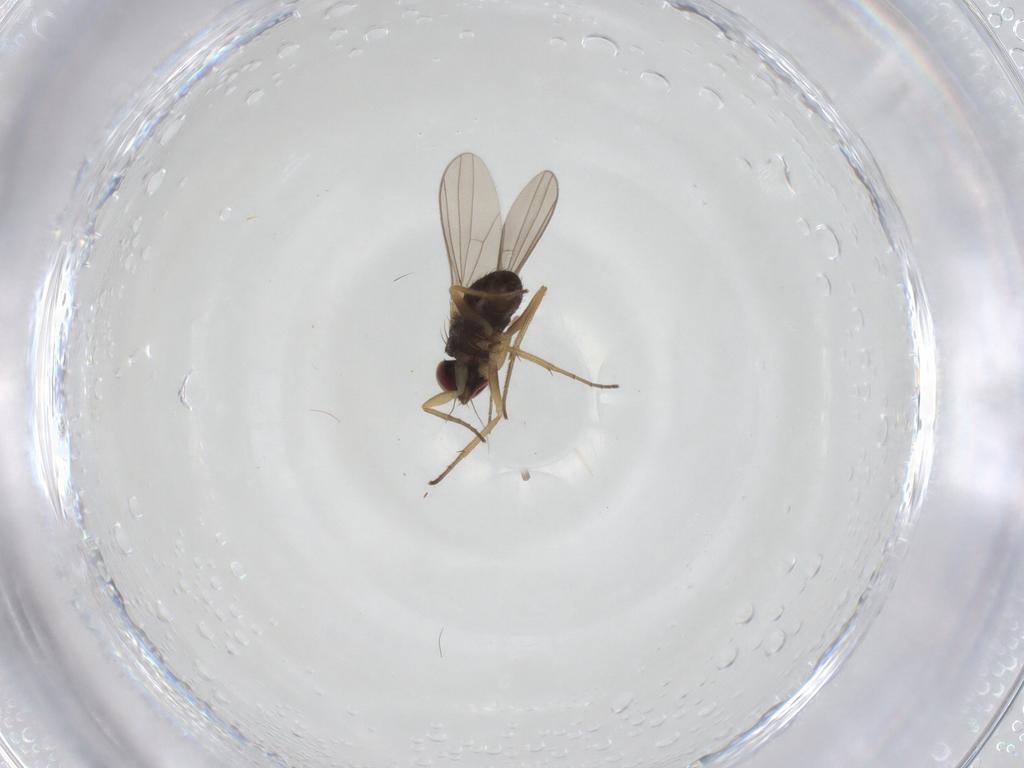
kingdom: Animalia
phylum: Arthropoda
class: Insecta
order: Diptera
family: Dolichopodidae
